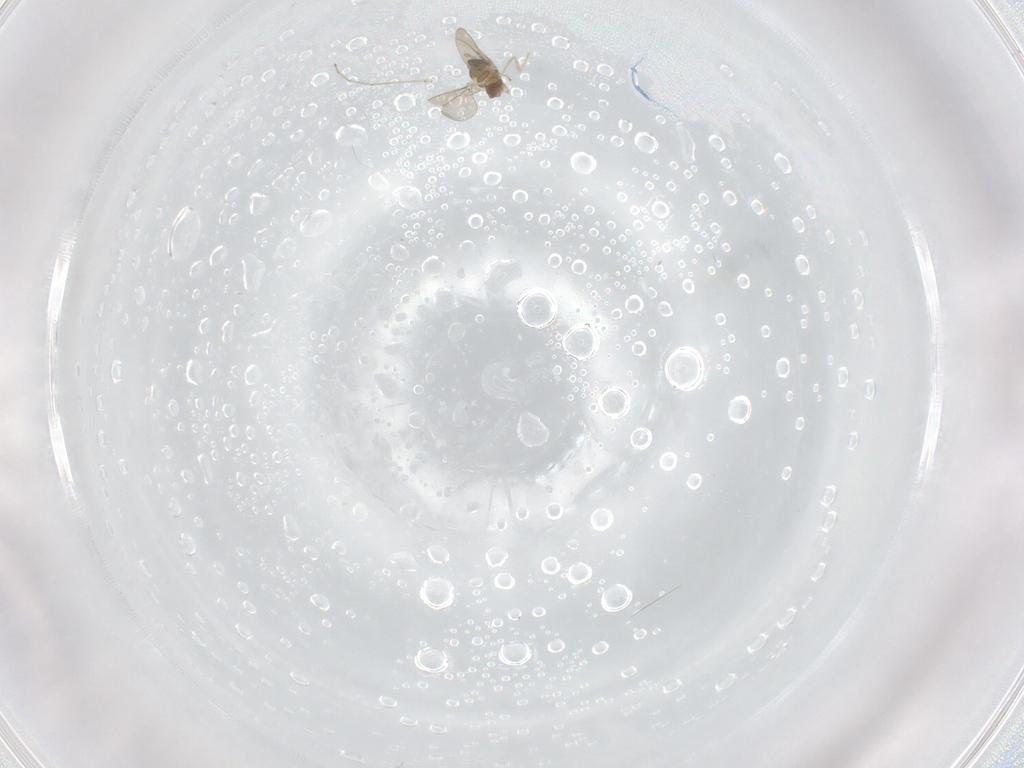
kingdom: Animalia
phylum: Arthropoda
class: Insecta
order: Diptera
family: Cecidomyiidae
